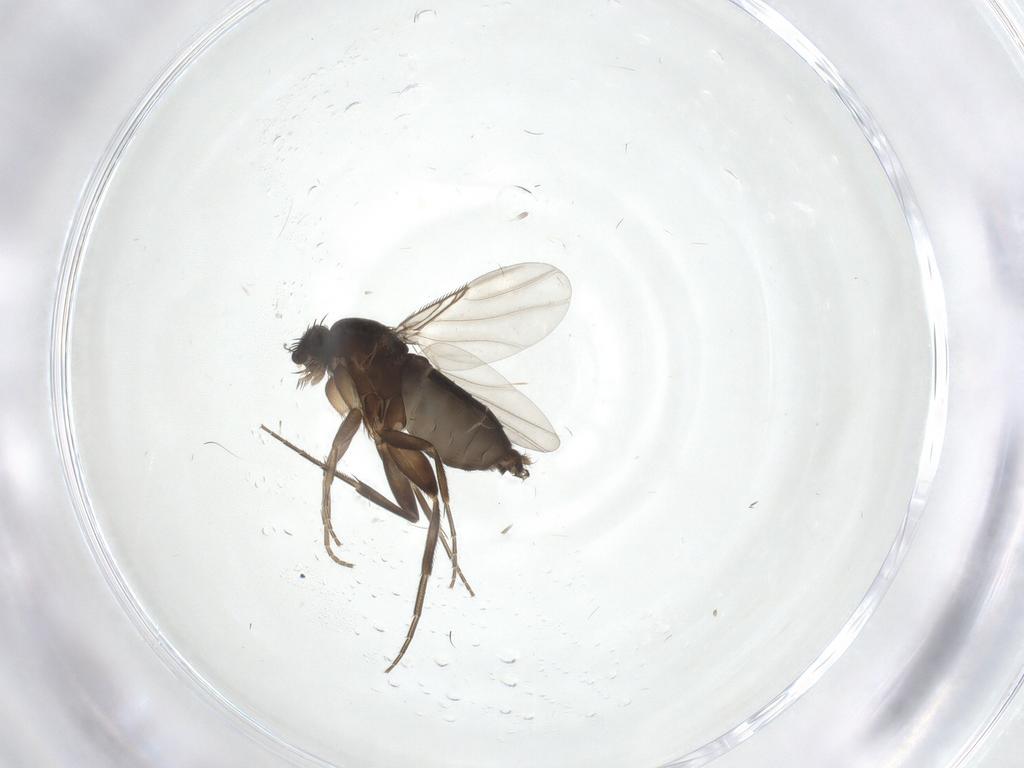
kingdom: Animalia
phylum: Arthropoda
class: Insecta
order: Diptera
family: Phoridae
